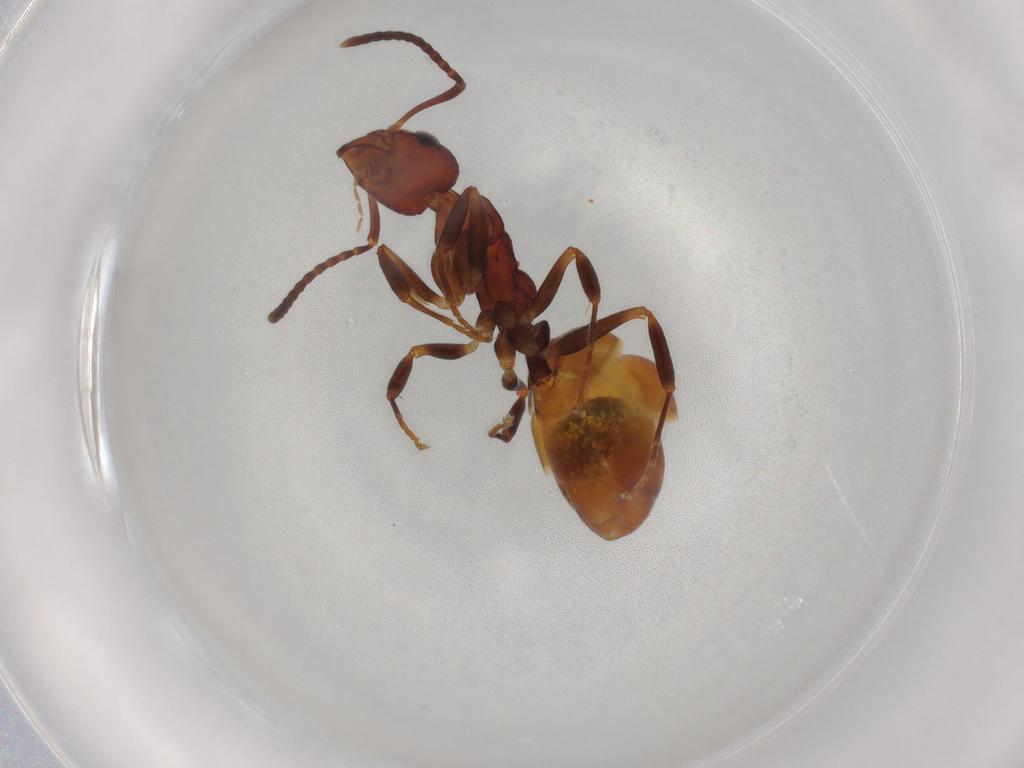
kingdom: Animalia
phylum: Arthropoda
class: Insecta
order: Hymenoptera
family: Formicidae
